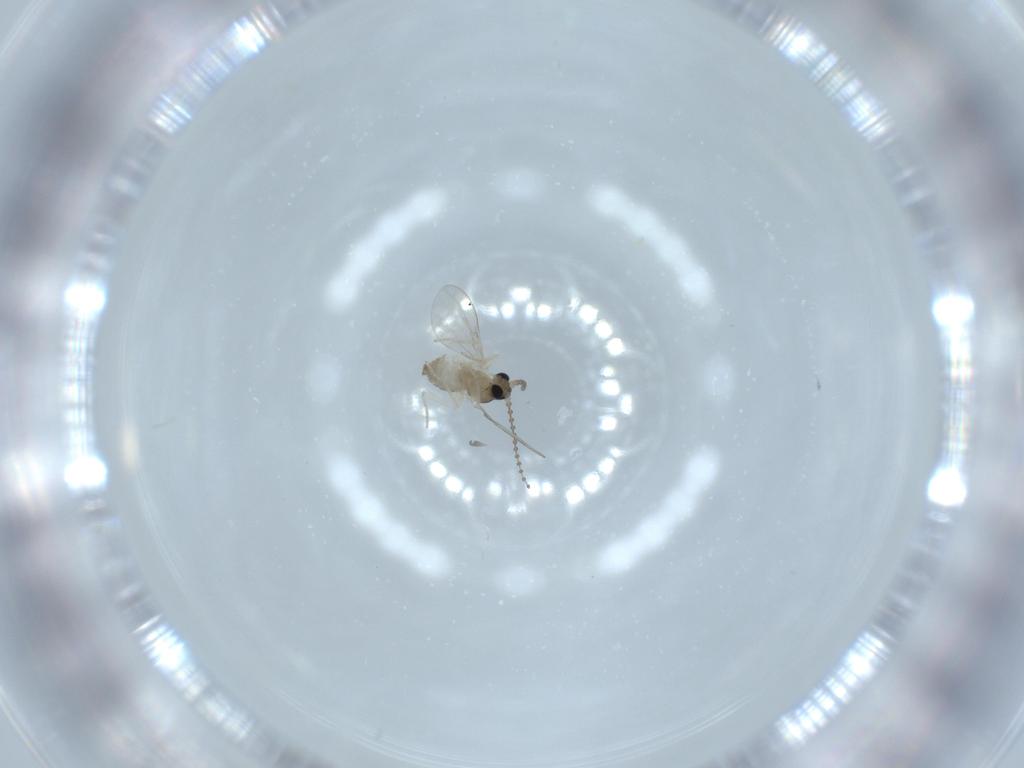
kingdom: Animalia
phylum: Arthropoda
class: Insecta
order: Diptera
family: Cecidomyiidae
